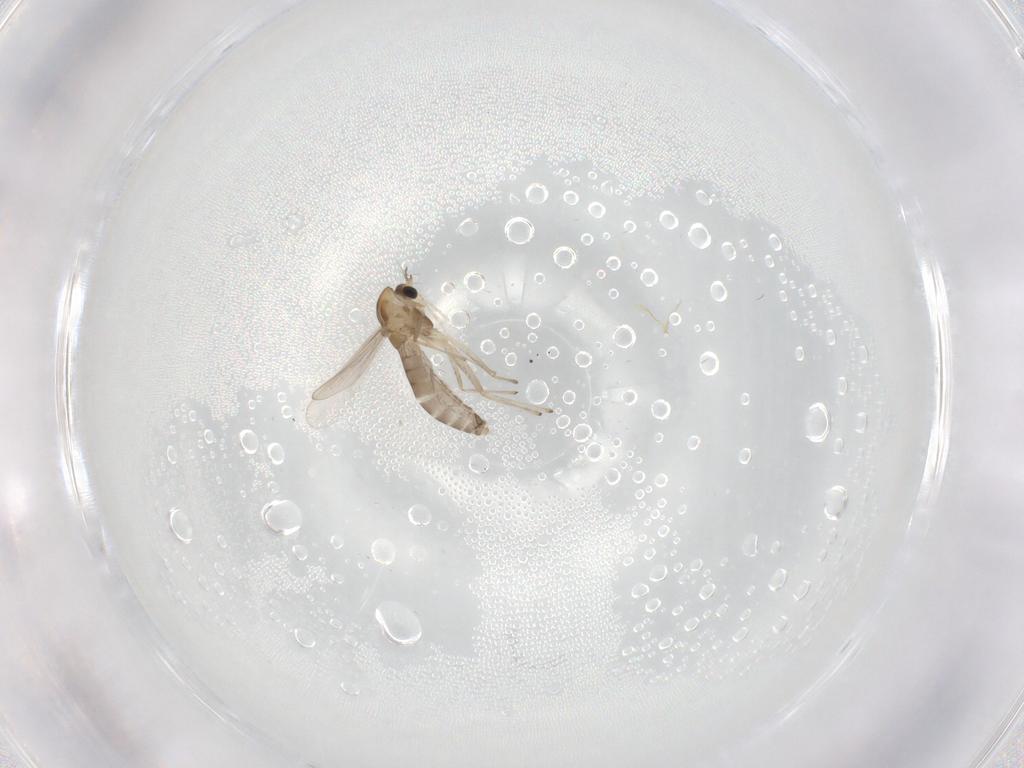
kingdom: Animalia
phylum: Arthropoda
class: Insecta
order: Diptera
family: Chironomidae
